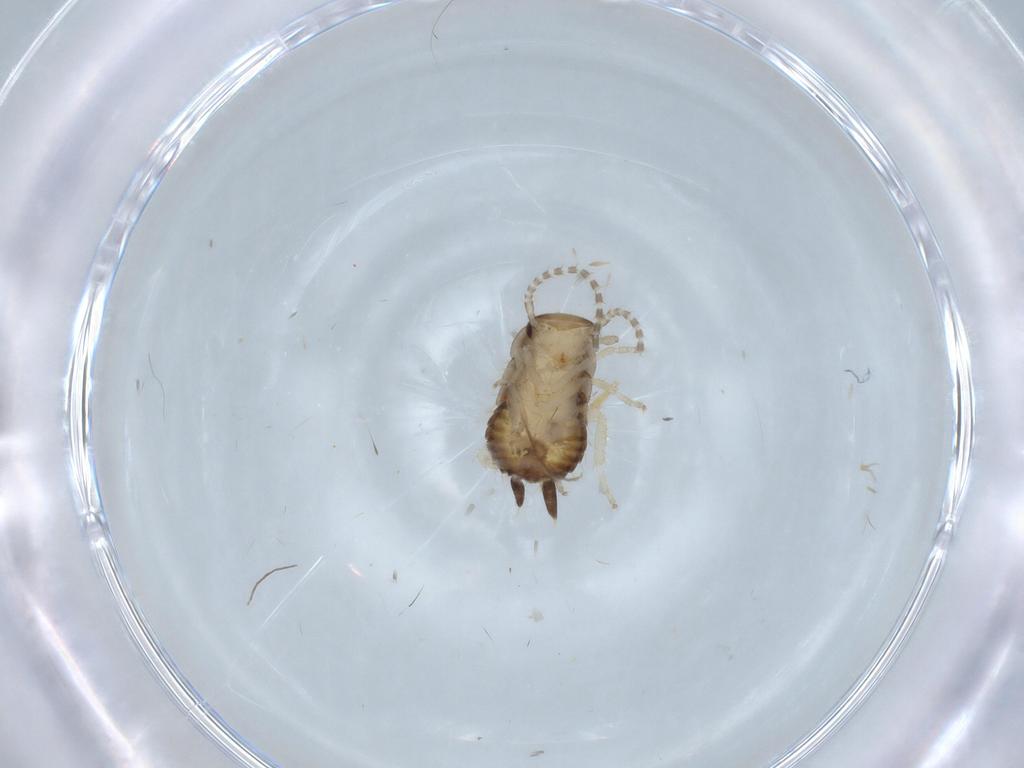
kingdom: Animalia
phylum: Arthropoda
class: Insecta
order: Blattodea
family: Ectobiidae
